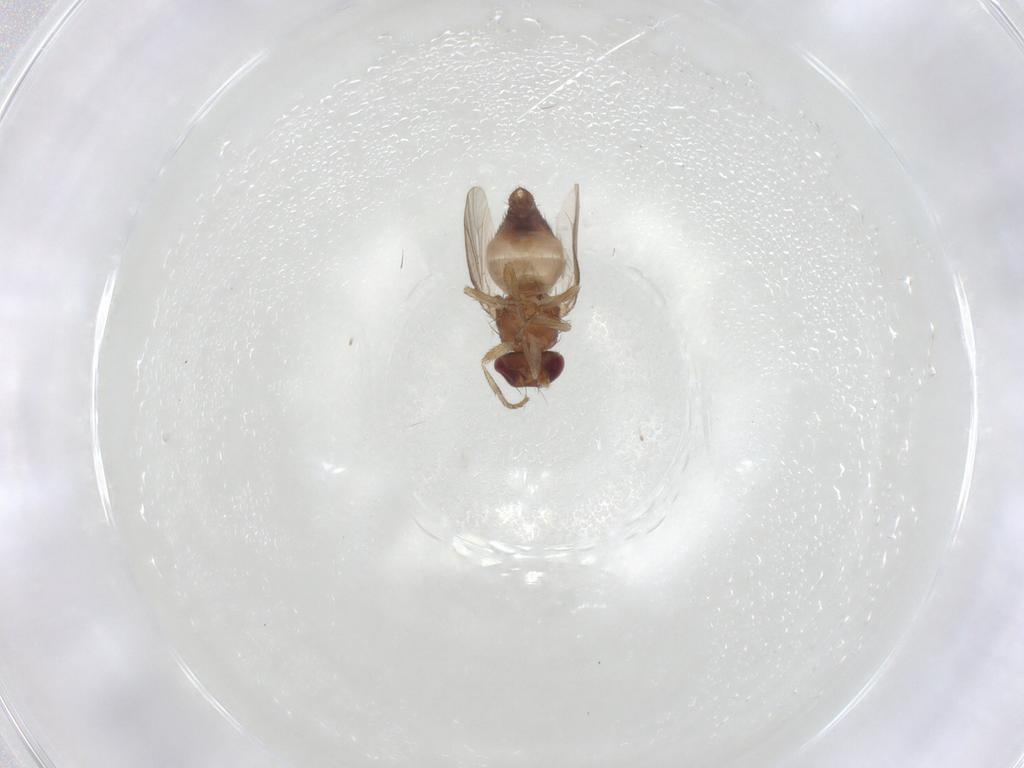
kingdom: Animalia
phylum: Arthropoda
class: Insecta
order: Diptera
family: Heleomyzidae
